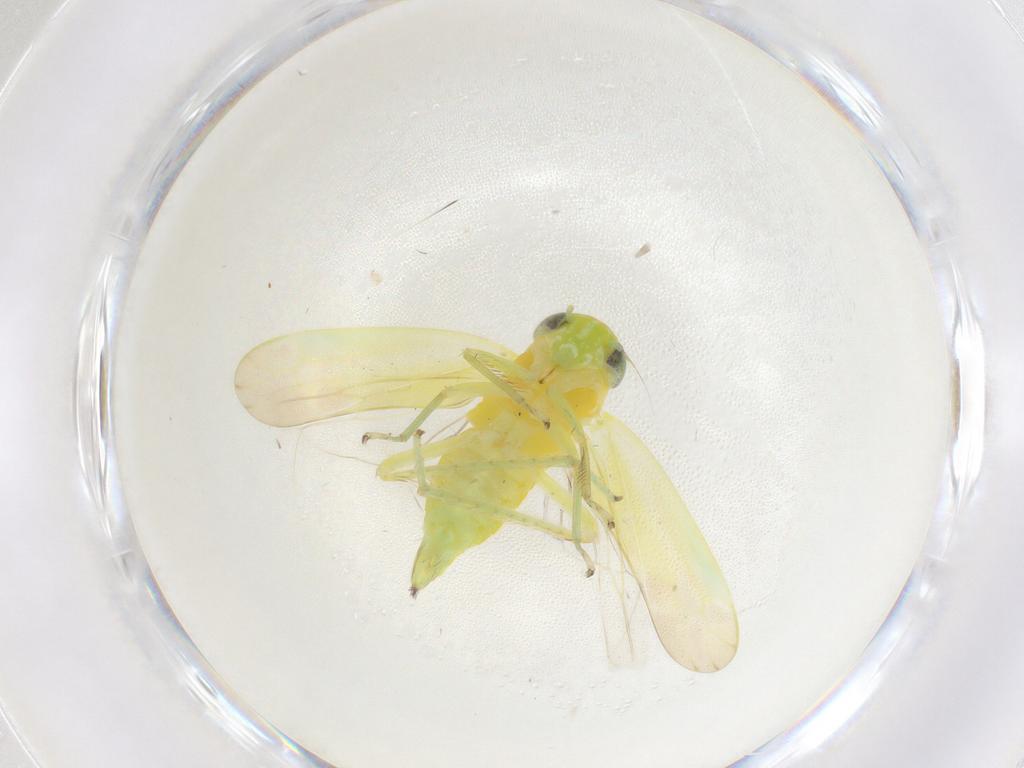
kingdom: Animalia
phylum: Arthropoda
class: Insecta
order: Hemiptera
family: Cicadellidae
